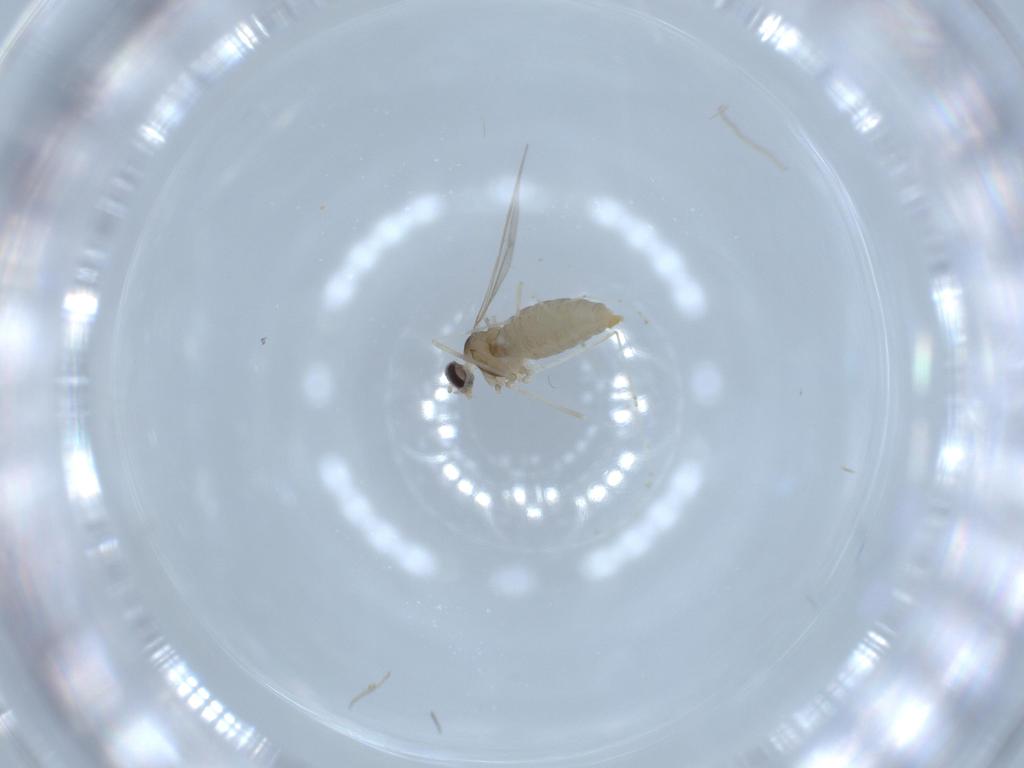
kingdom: Animalia
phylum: Arthropoda
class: Insecta
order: Diptera
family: Cecidomyiidae
